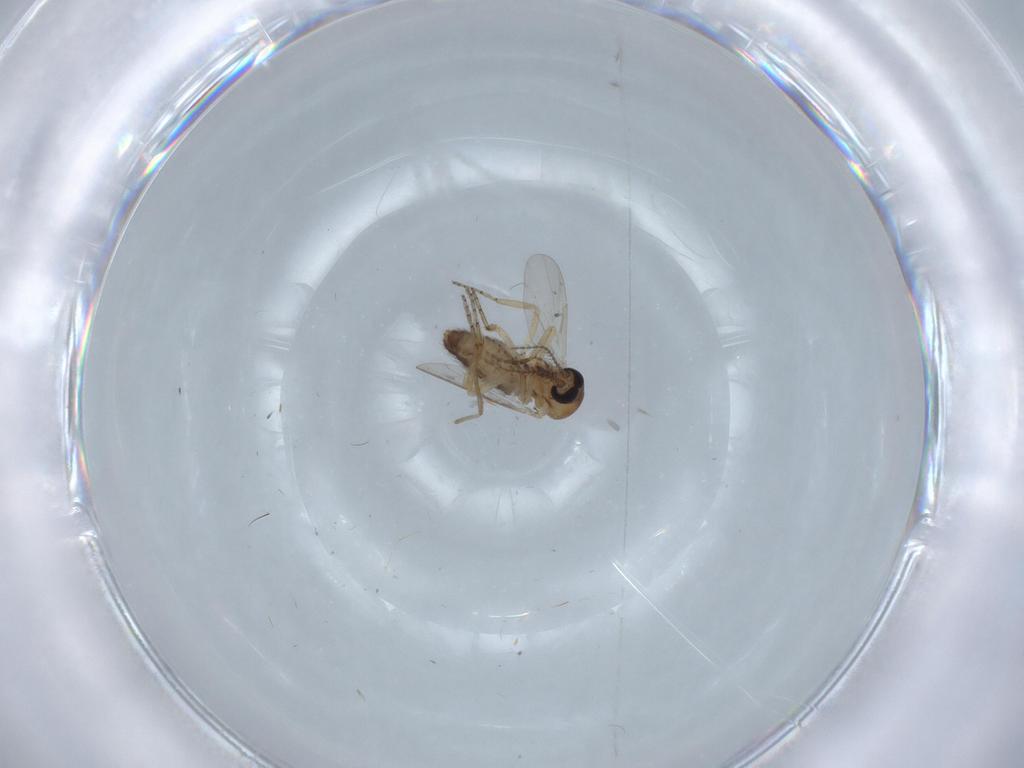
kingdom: Animalia
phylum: Arthropoda
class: Insecta
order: Diptera
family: Ceratopogonidae
